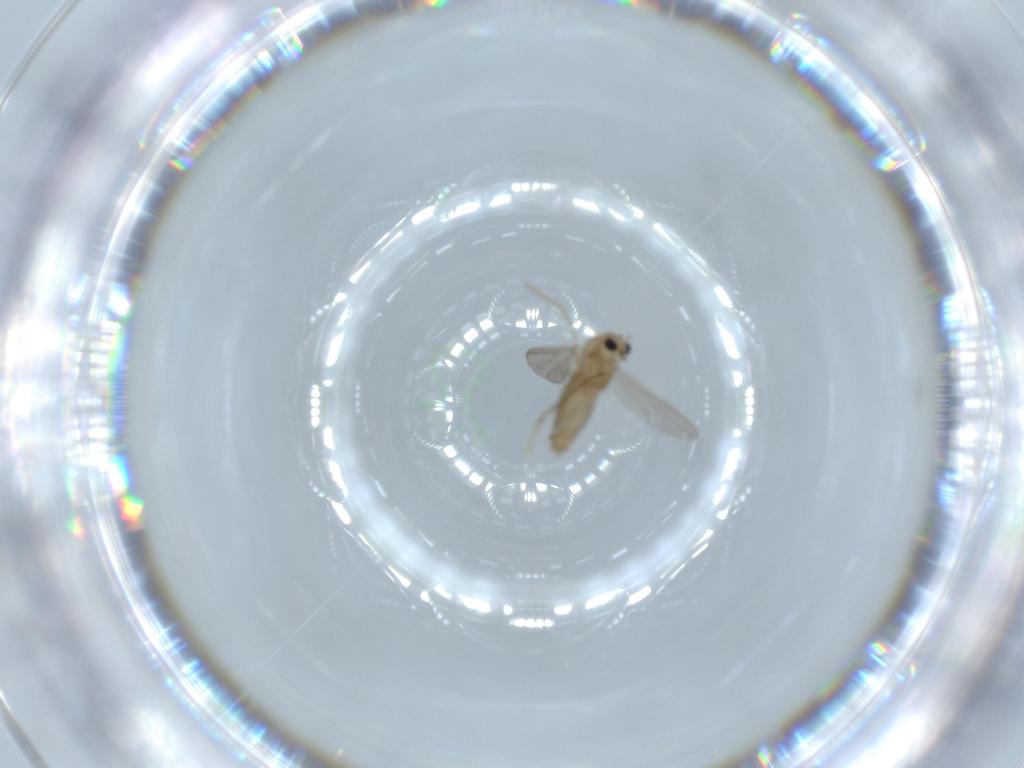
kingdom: Animalia
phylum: Arthropoda
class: Insecta
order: Diptera
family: Chironomidae
